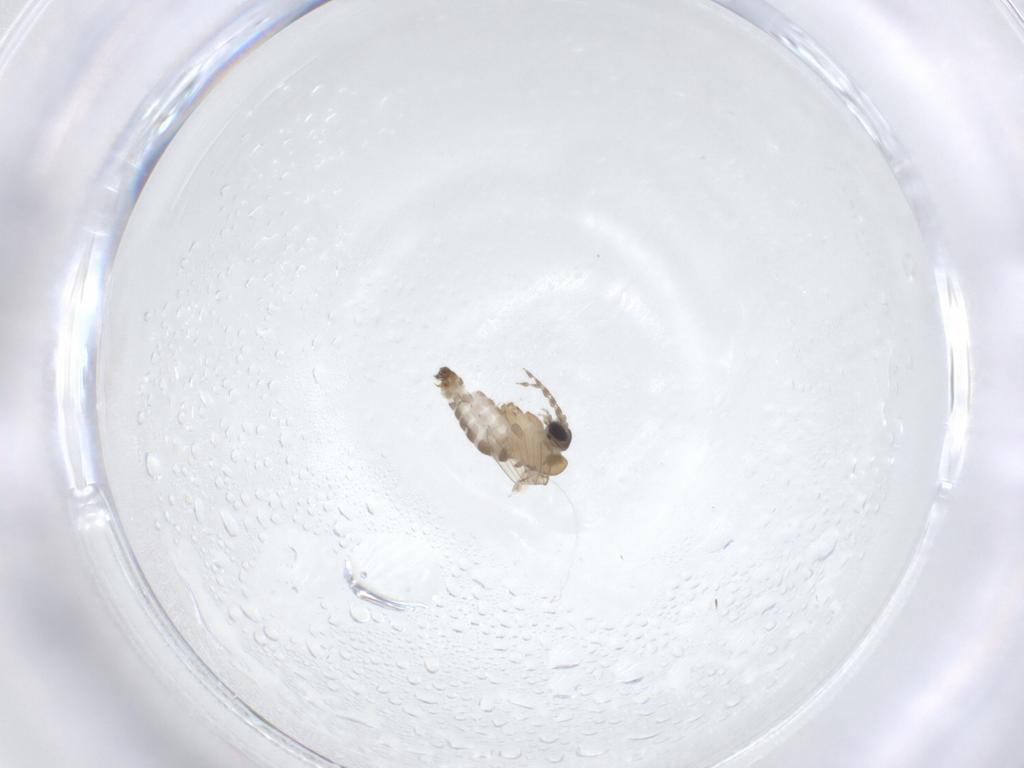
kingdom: Animalia
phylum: Arthropoda
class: Insecta
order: Diptera
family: Psychodidae
